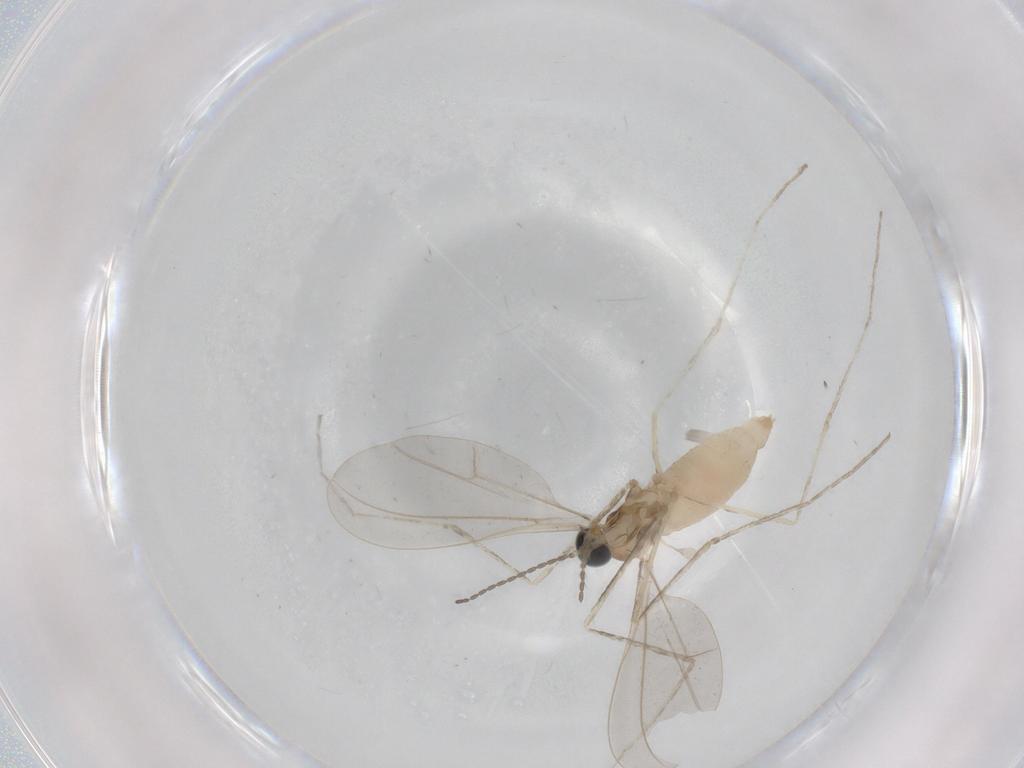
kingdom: Animalia
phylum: Arthropoda
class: Insecta
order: Diptera
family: Cecidomyiidae
